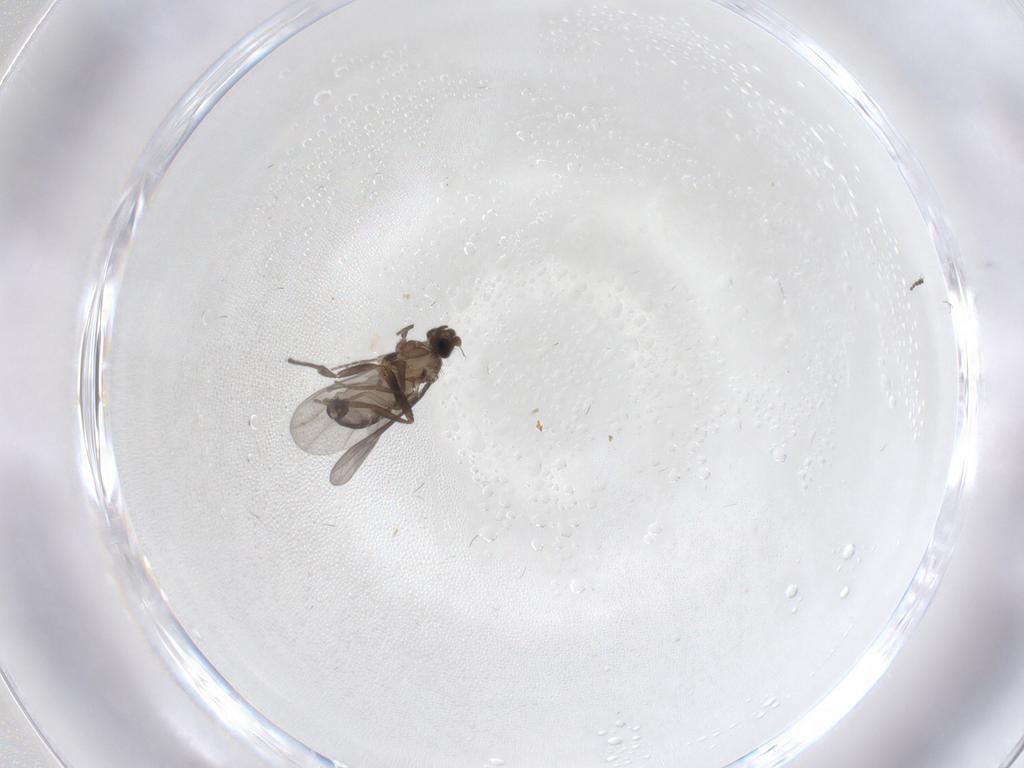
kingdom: Animalia
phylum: Arthropoda
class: Insecta
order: Diptera
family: Phoridae
